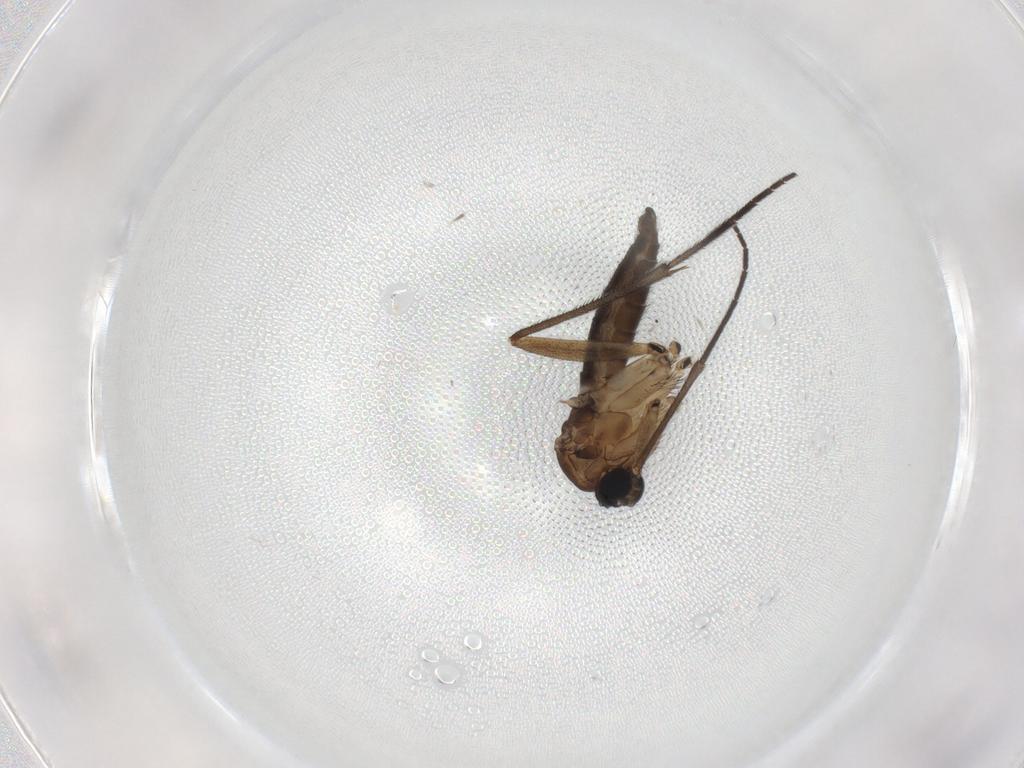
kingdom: Animalia
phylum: Arthropoda
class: Insecta
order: Diptera
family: Sciaridae
